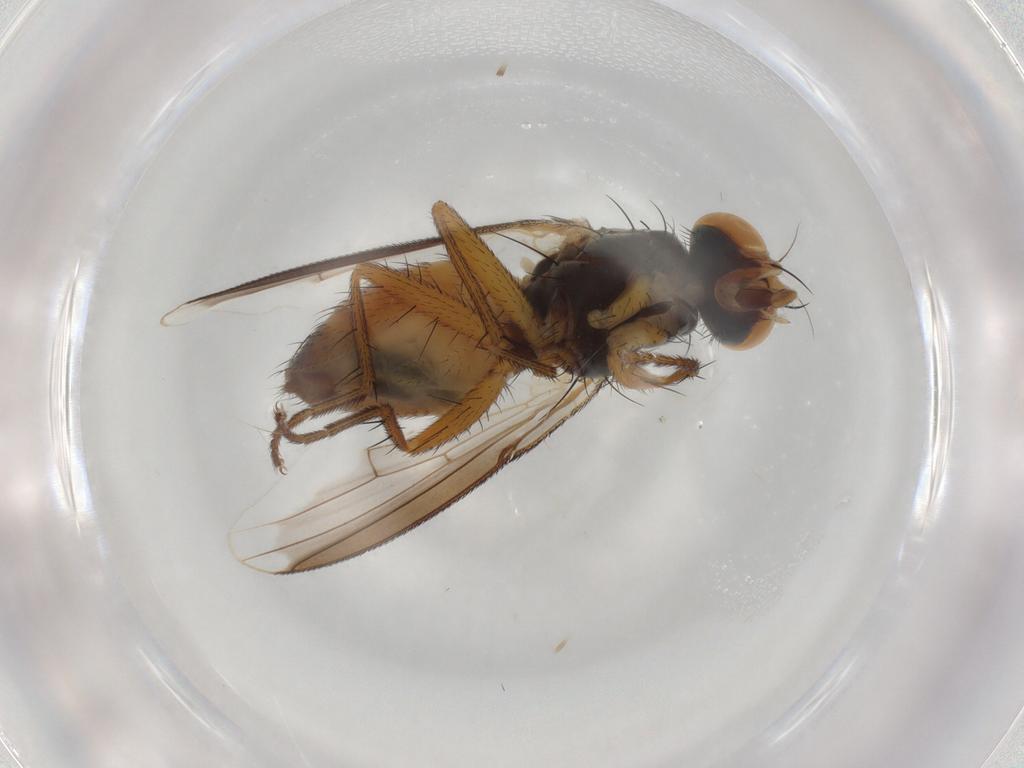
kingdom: Animalia
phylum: Arthropoda
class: Insecta
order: Diptera
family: Muscidae
